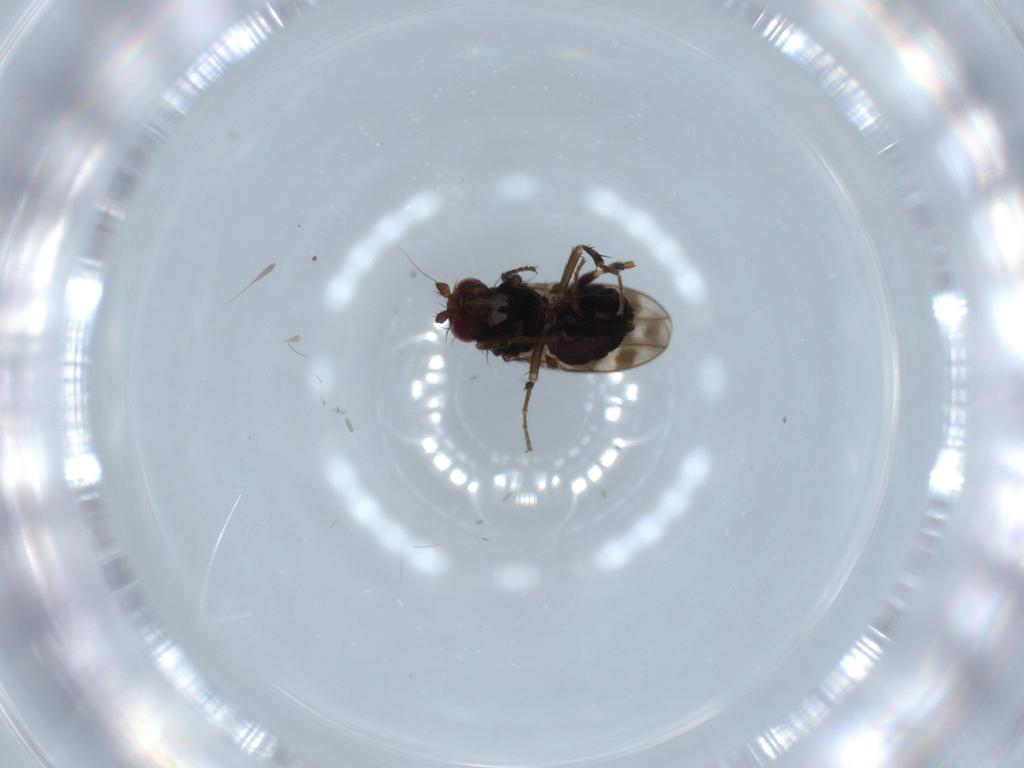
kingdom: Animalia
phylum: Arthropoda
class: Insecta
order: Diptera
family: Sphaeroceridae
